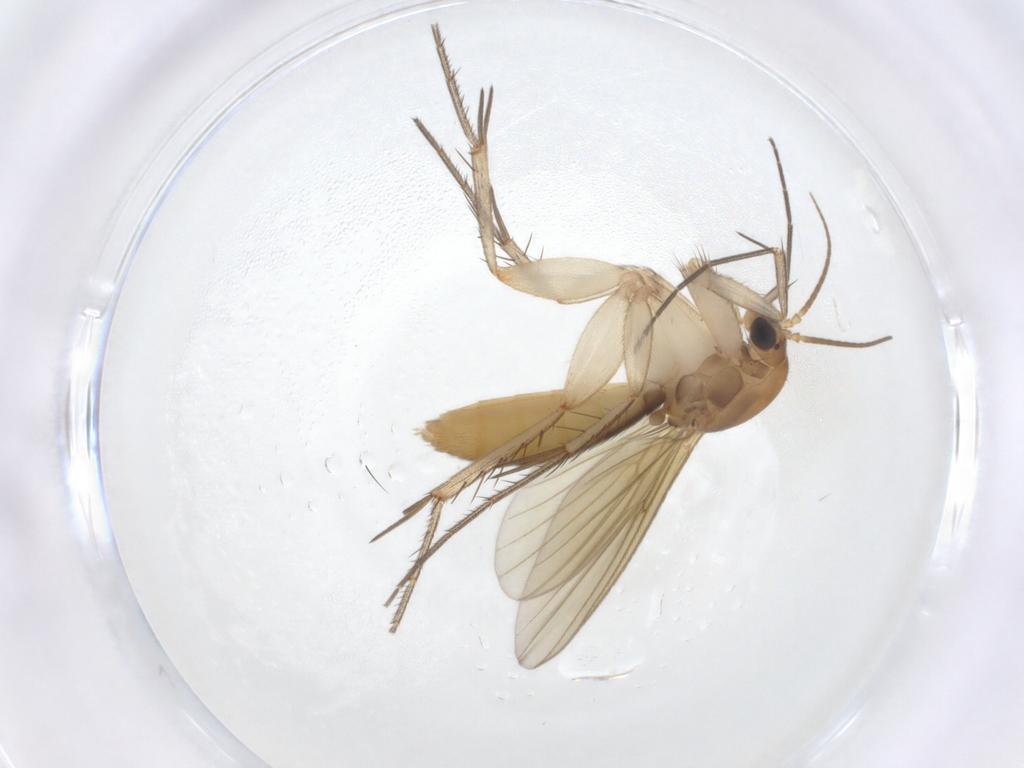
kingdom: Animalia
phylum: Arthropoda
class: Insecta
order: Diptera
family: Mycetophilidae
